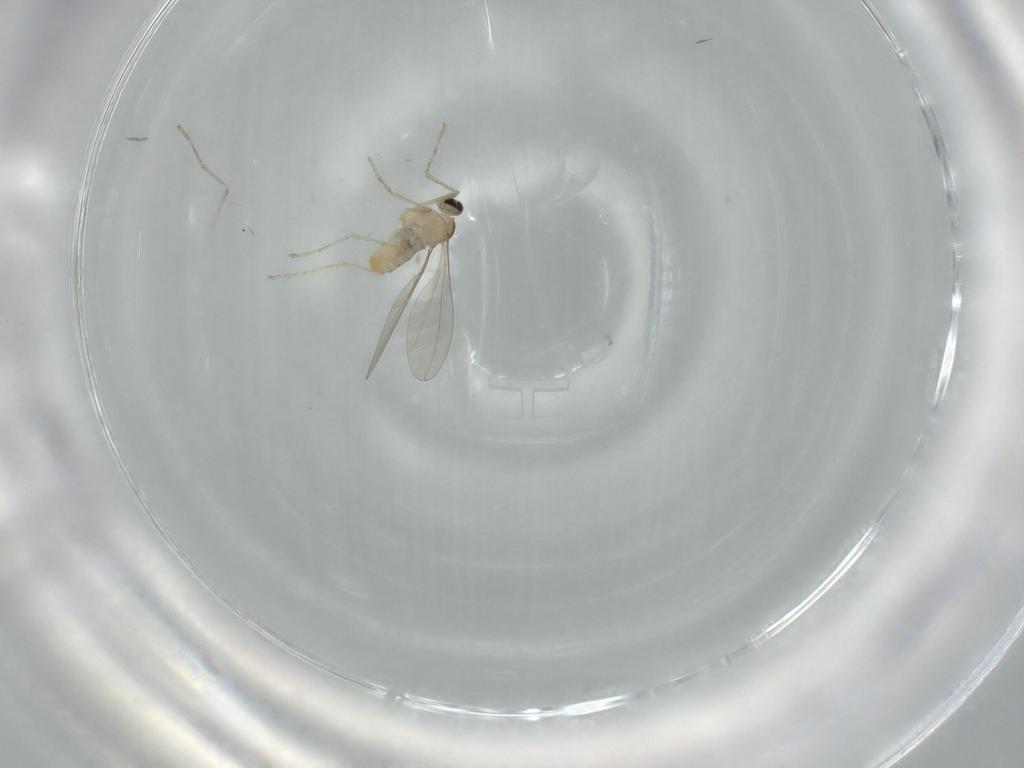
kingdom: Animalia
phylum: Arthropoda
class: Insecta
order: Diptera
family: Cecidomyiidae
